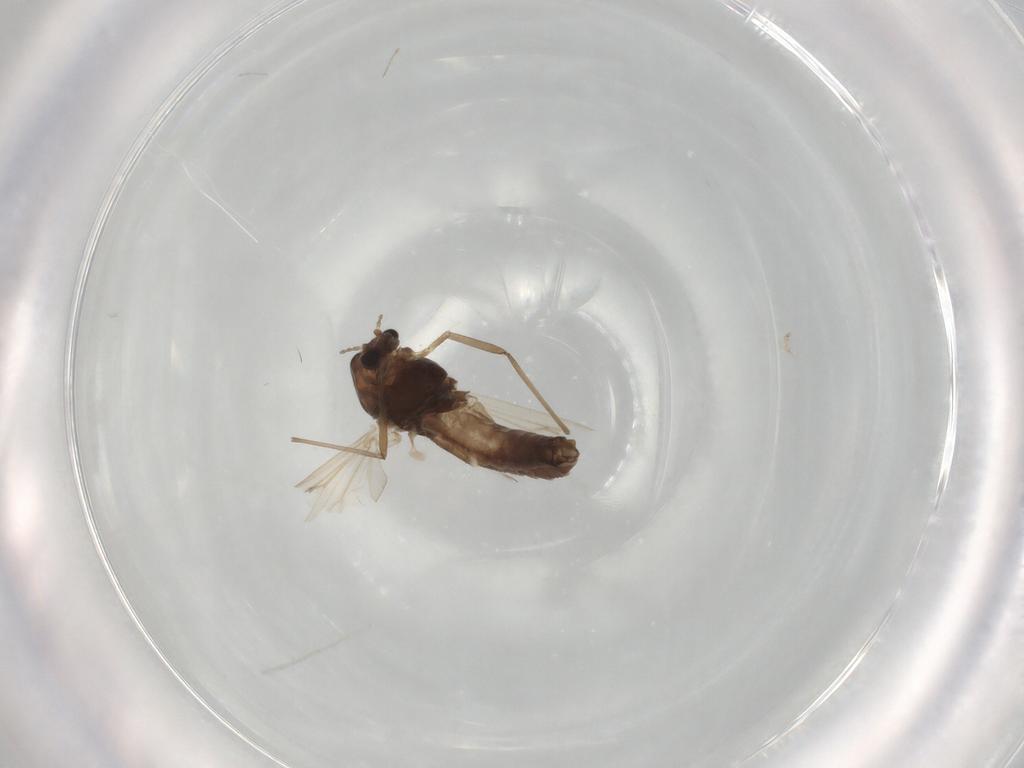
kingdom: Animalia
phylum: Arthropoda
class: Insecta
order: Diptera
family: Chironomidae
